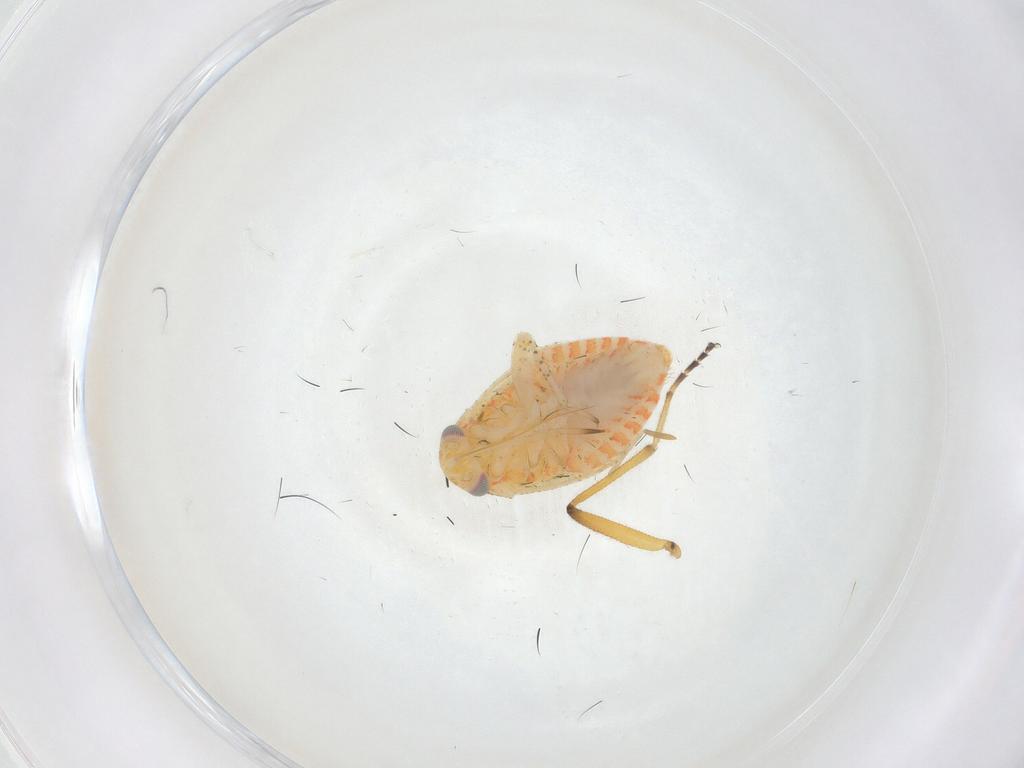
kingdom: Animalia
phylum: Arthropoda
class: Insecta
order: Hemiptera
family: Miridae
